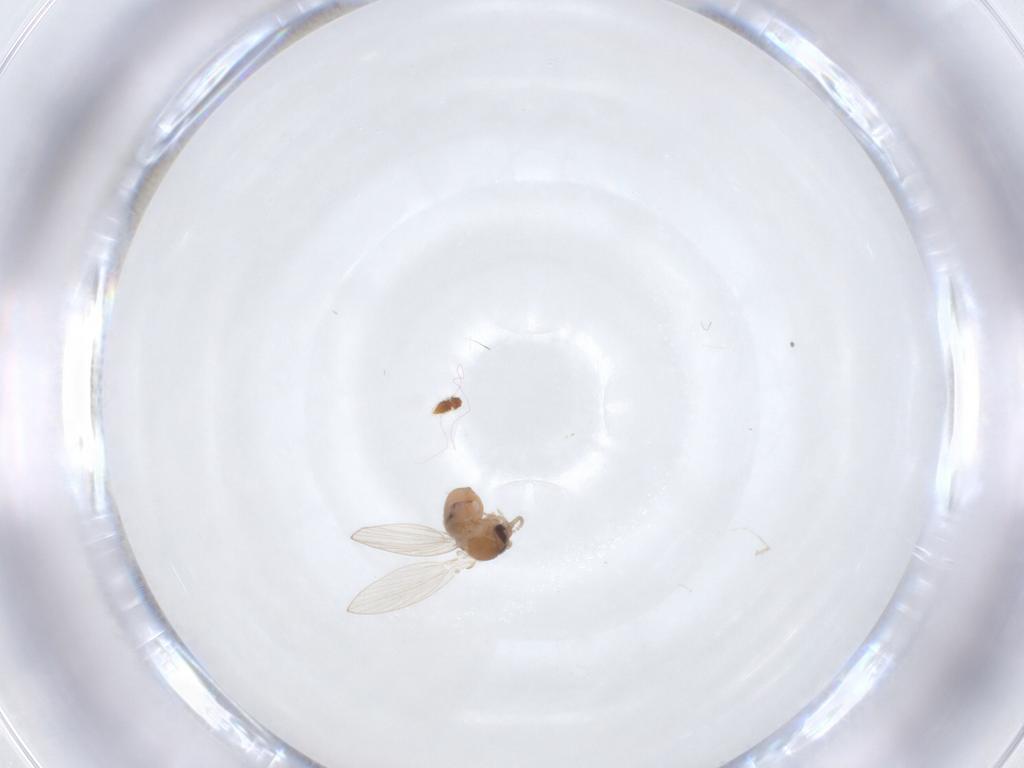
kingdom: Animalia
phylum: Arthropoda
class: Insecta
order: Diptera
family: Psychodidae
